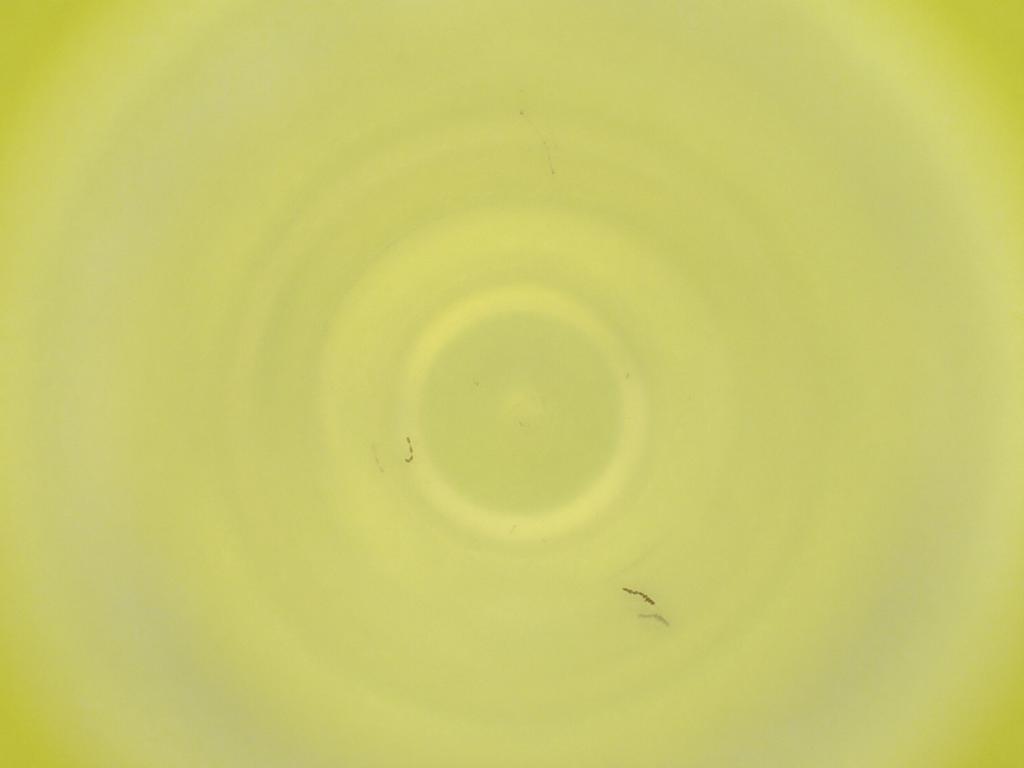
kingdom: Animalia
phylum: Arthropoda
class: Insecta
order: Diptera
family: Cecidomyiidae
